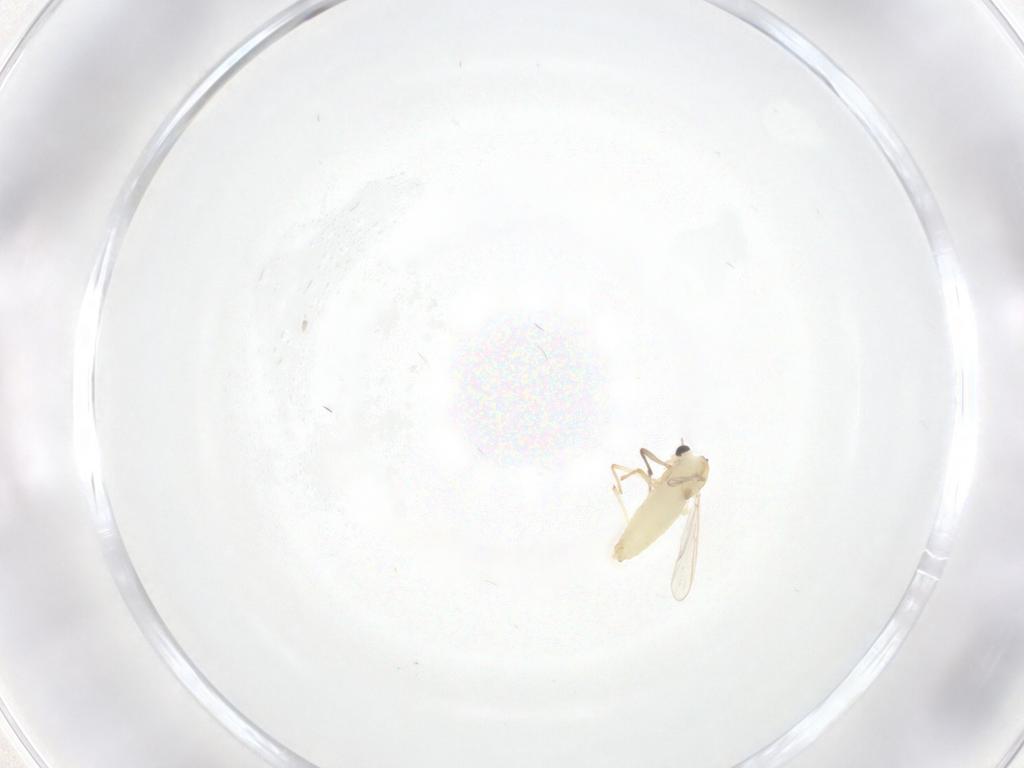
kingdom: Animalia
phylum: Arthropoda
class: Insecta
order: Diptera
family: Chironomidae
